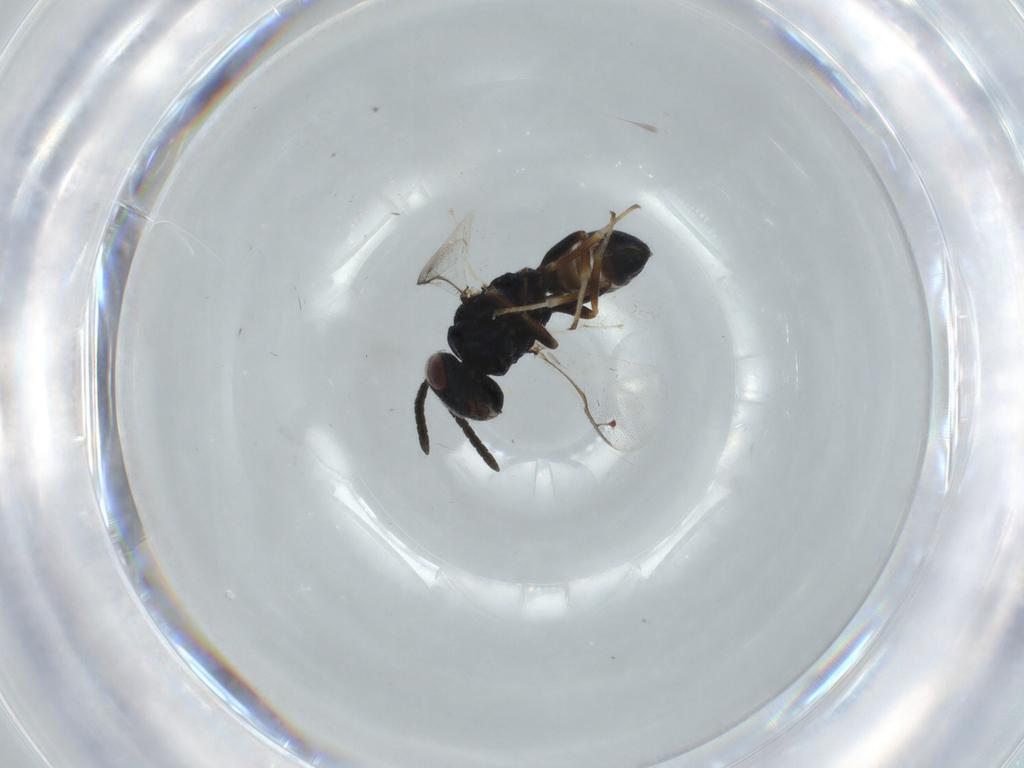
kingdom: Animalia
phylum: Arthropoda
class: Insecta
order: Hymenoptera
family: Pteromalidae
